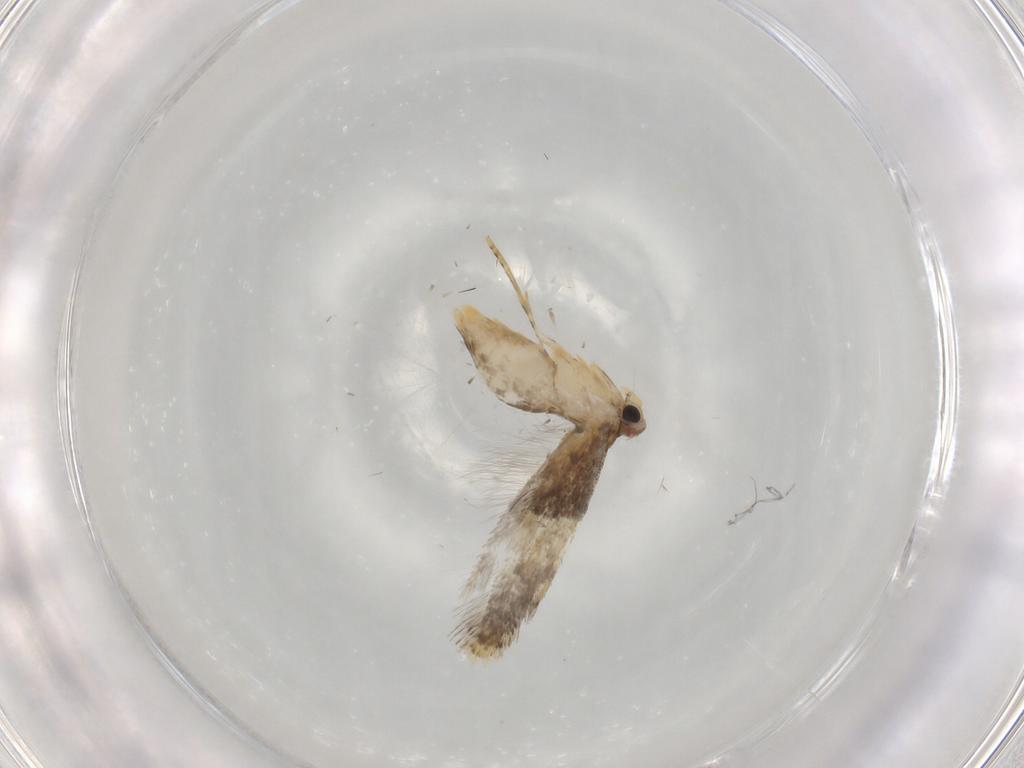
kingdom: Animalia
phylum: Arthropoda
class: Insecta
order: Lepidoptera
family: Tineidae
